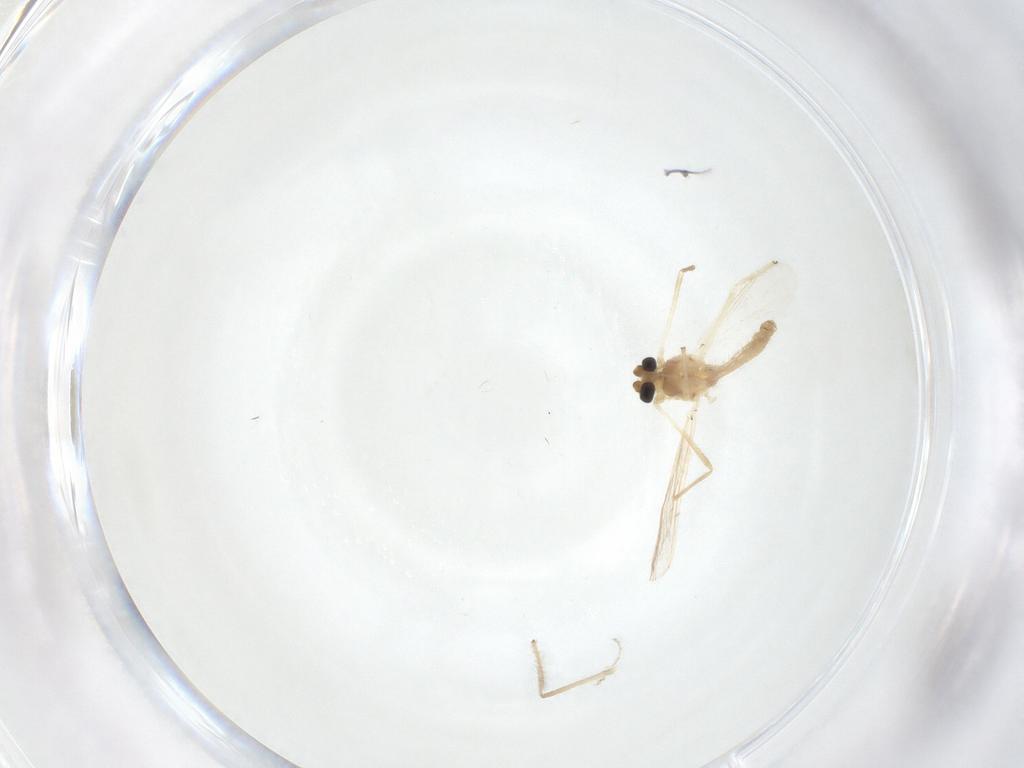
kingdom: Animalia
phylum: Arthropoda
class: Insecta
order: Diptera
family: Chironomidae
